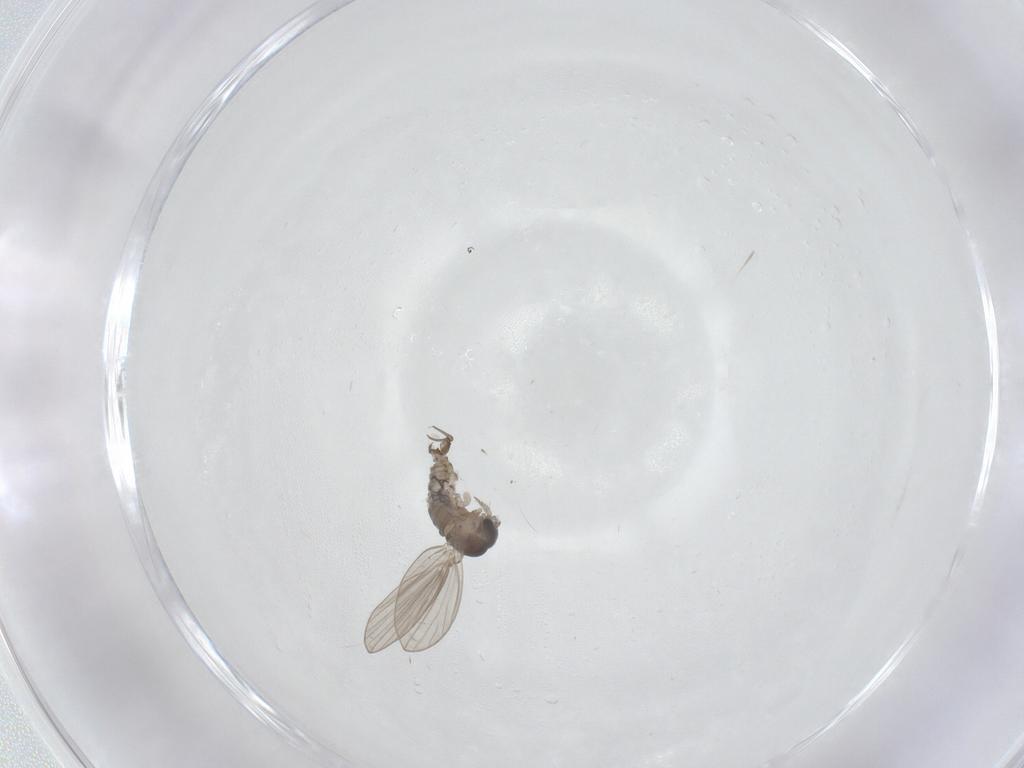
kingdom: Animalia
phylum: Arthropoda
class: Insecta
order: Diptera
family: Psychodidae
